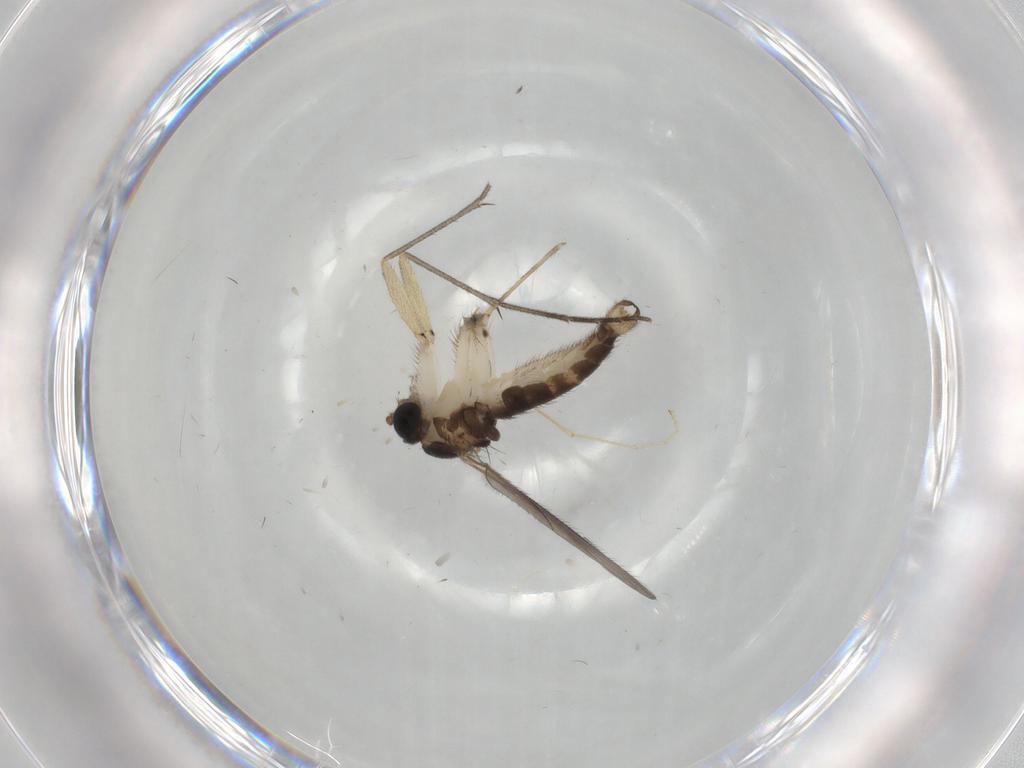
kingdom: Animalia
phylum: Arthropoda
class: Insecta
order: Diptera
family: Sciaridae
